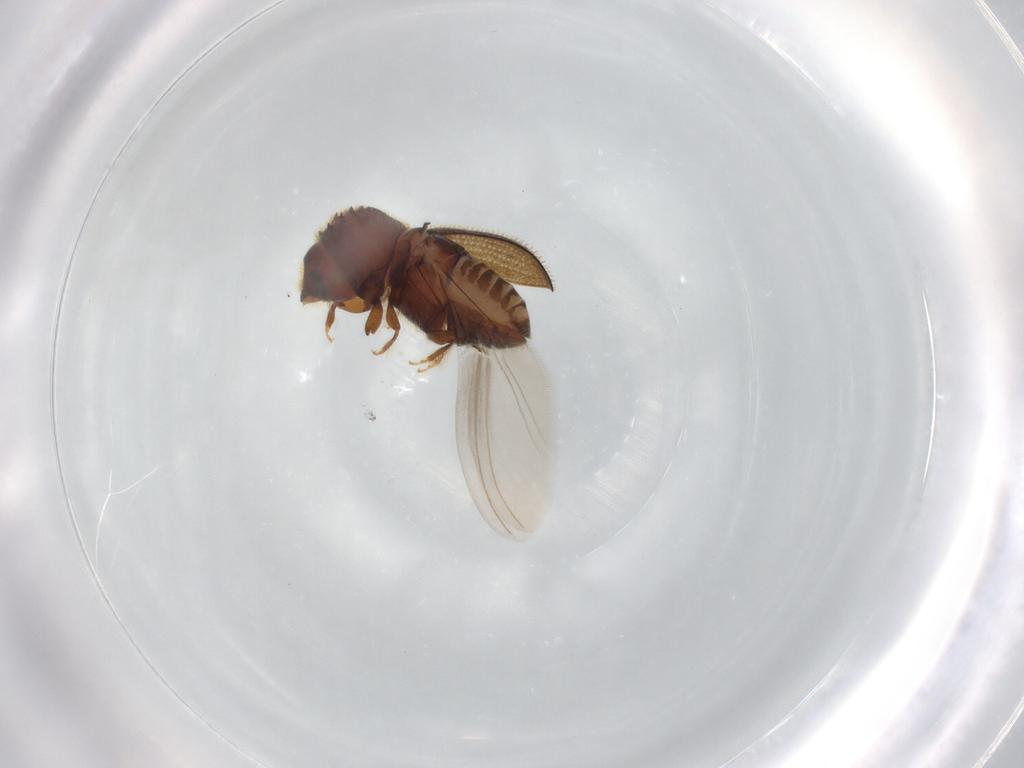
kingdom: Animalia
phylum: Arthropoda
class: Insecta
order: Coleoptera
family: Curculionidae
